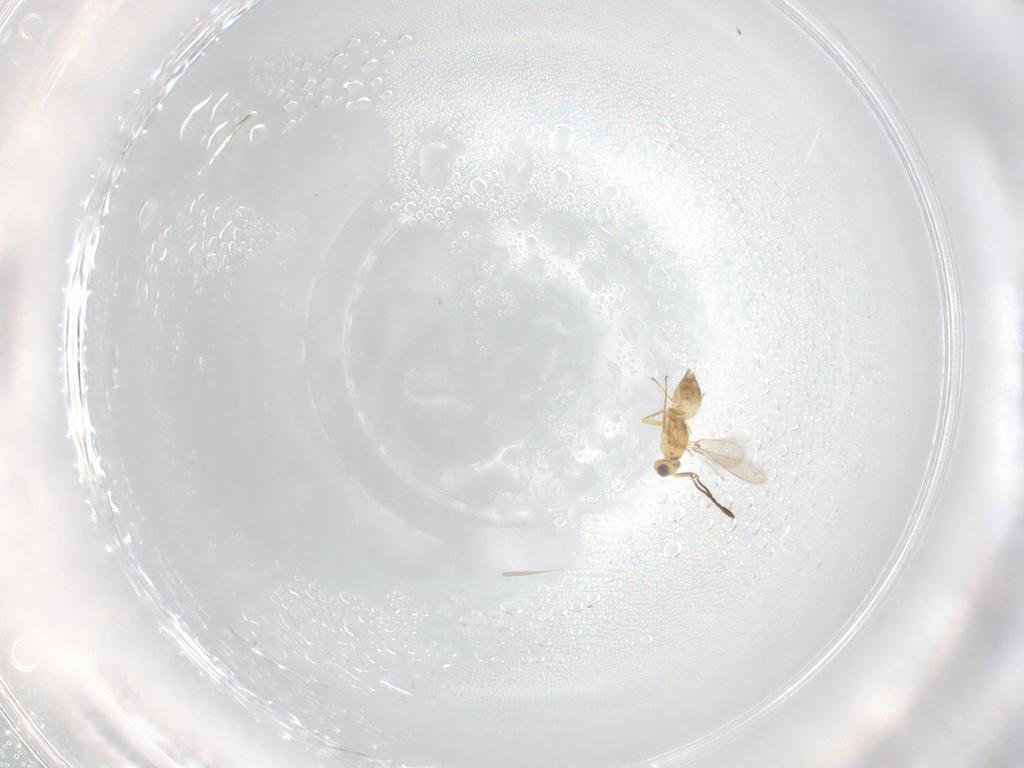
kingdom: Animalia
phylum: Arthropoda
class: Insecta
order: Hymenoptera
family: Mymaridae
